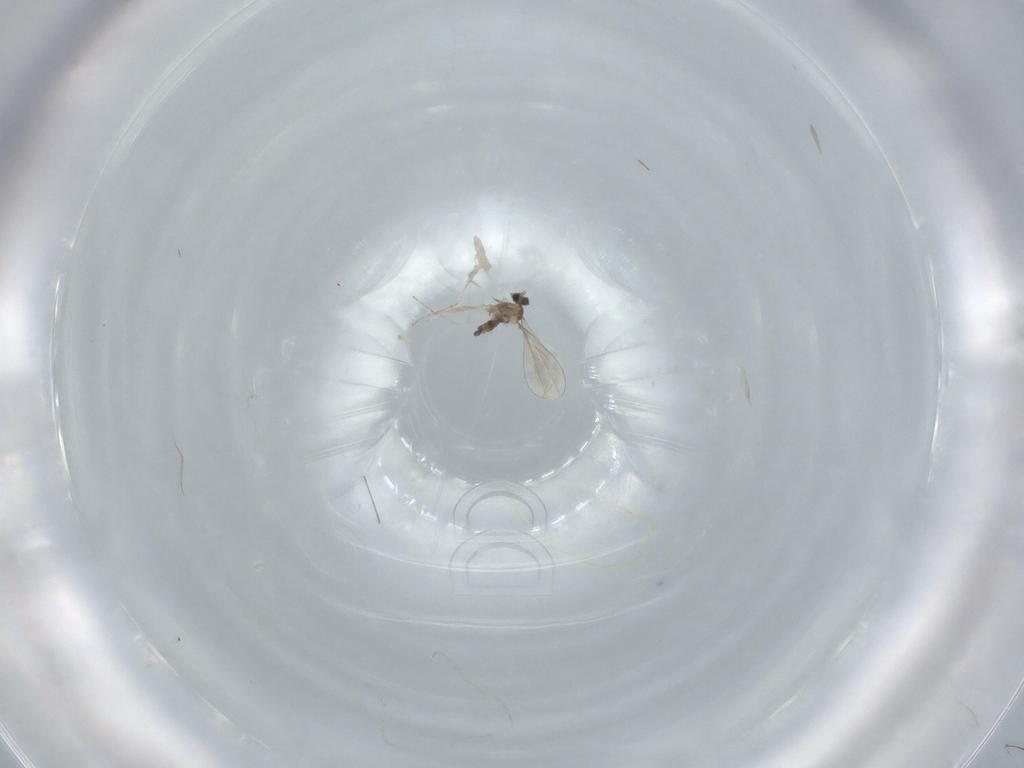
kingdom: Animalia
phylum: Arthropoda
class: Insecta
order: Diptera
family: Cecidomyiidae
